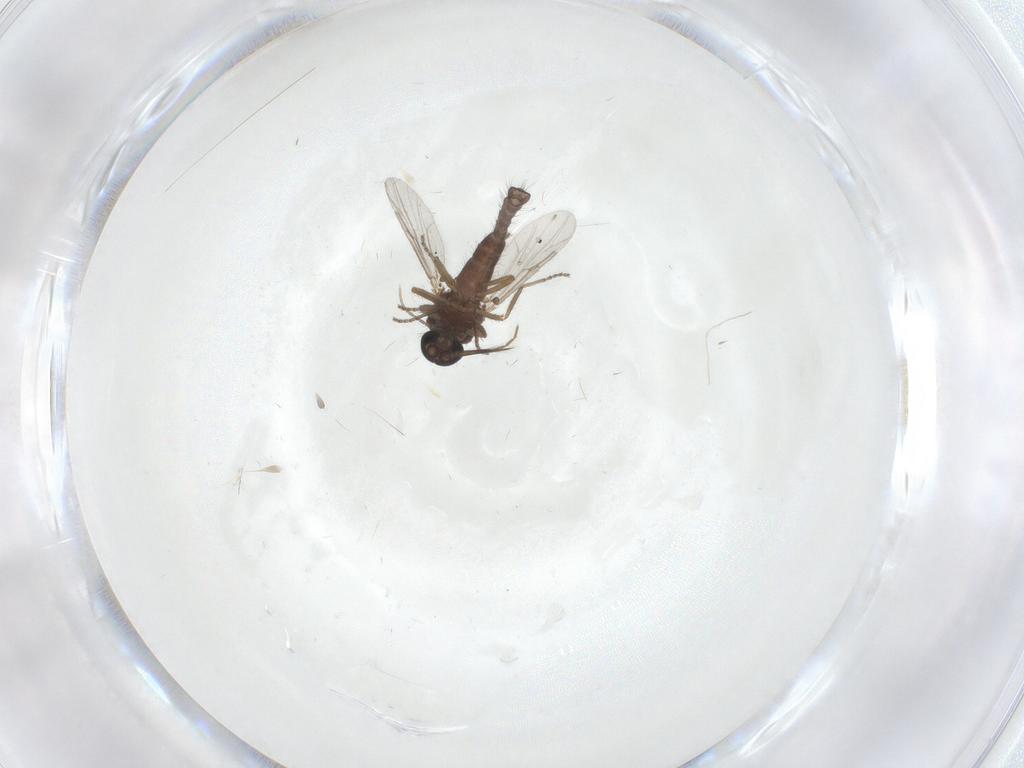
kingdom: Animalia
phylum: Arthropoda
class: Insecta
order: Diptera
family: Ceratopogonidae
